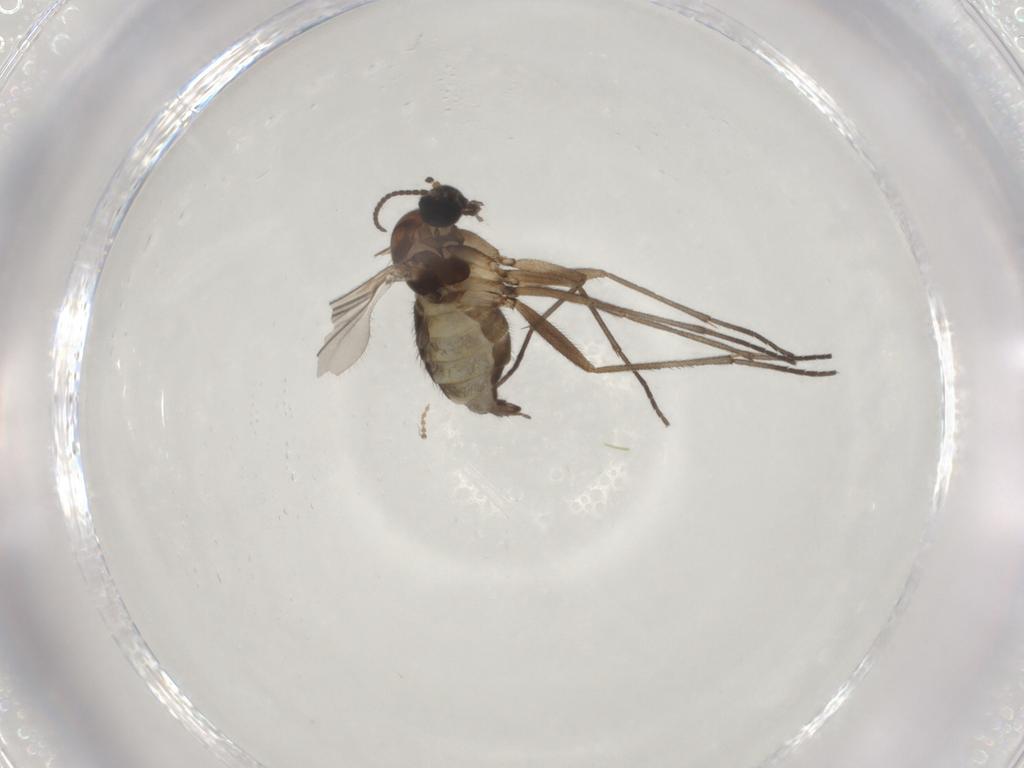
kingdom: Animalia
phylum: Arthropoda
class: Insecta
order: Diptera
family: Sciaridae
